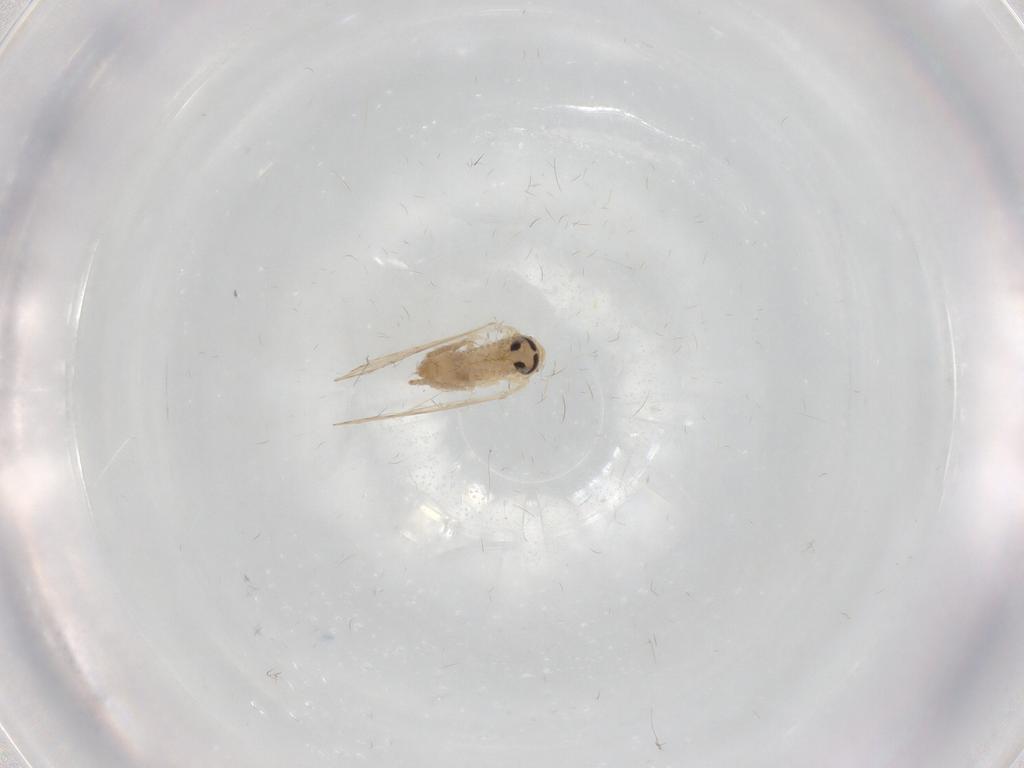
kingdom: Animalia
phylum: Arthropoda
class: Insecta
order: Diptera
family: Psychodidae
